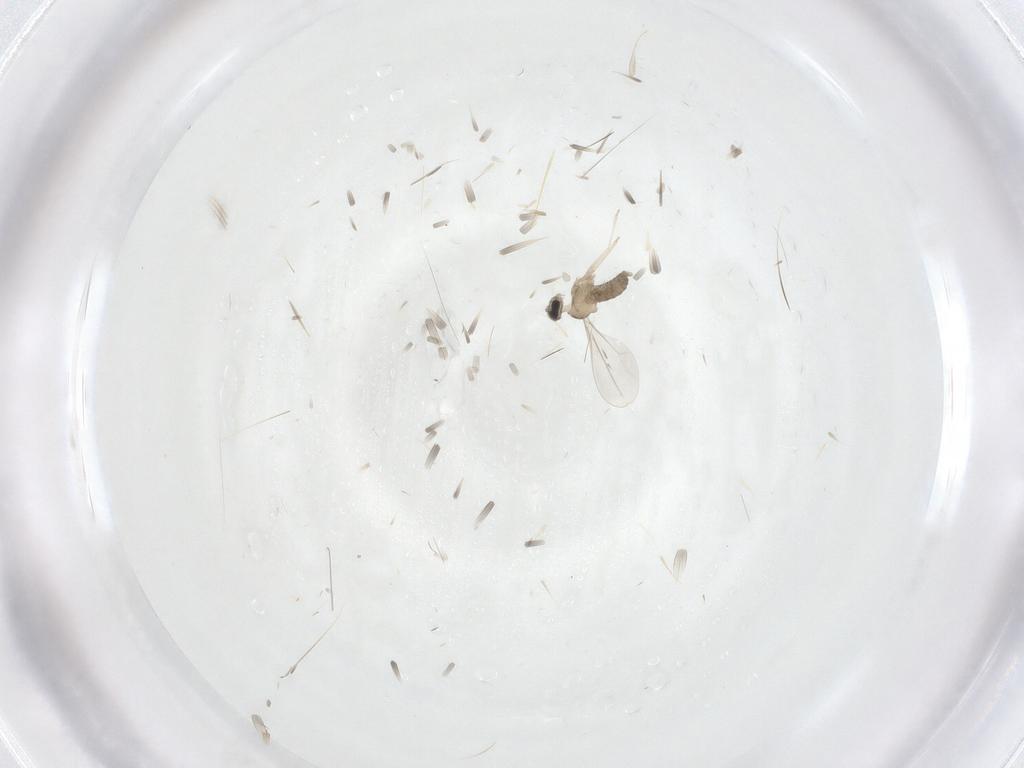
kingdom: Animalia
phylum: Arthropoda
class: Insecta
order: Diptera
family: Cecidomyiidae
